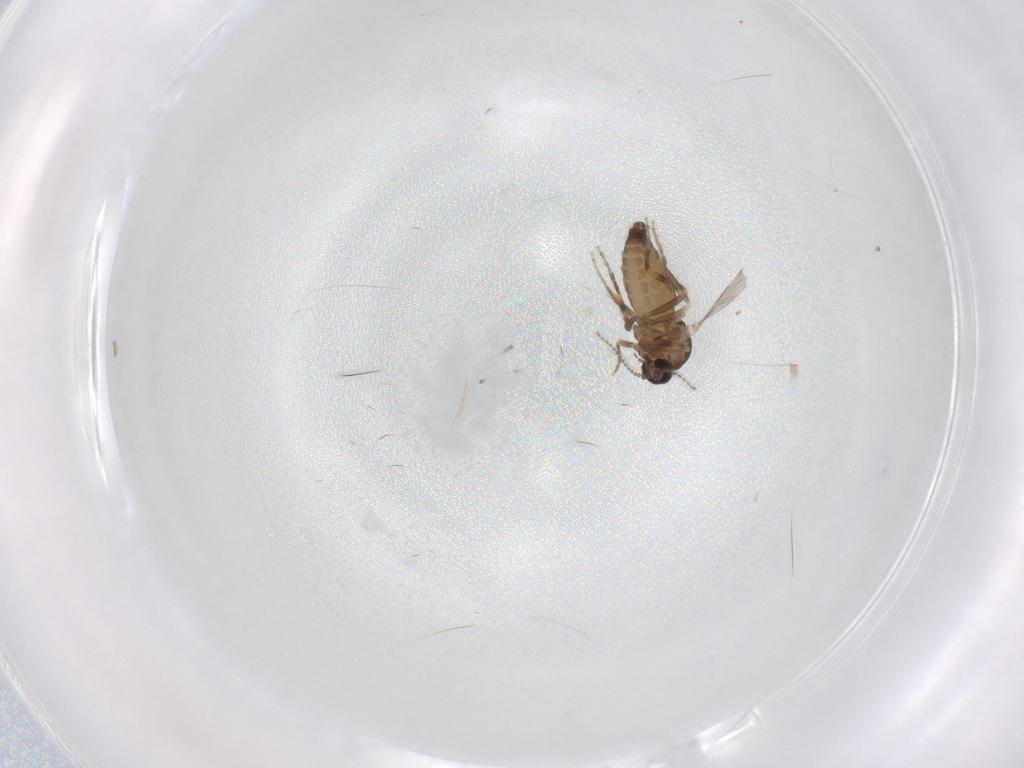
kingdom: Animalia
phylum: Arthropoda
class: Insecta
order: Diptera
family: Ceratopogonidae
